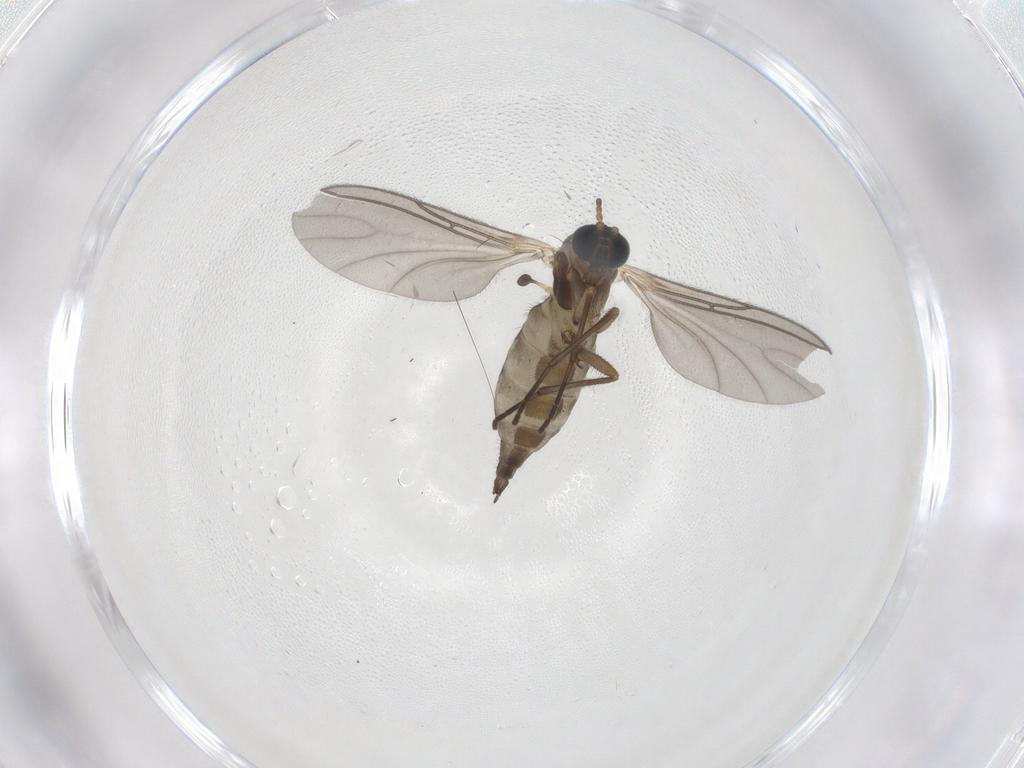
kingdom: Animalia
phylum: Arthropoda
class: Insecta
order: Diptera
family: Sciaridae
